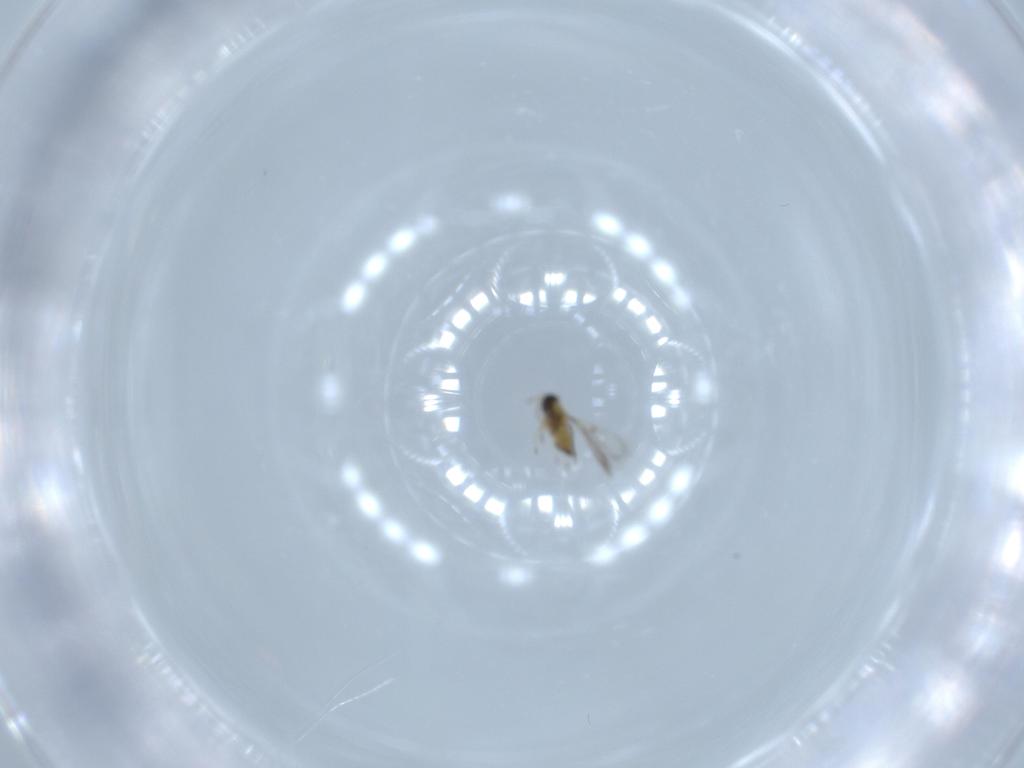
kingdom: Animalia
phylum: Arthropoda
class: Insecta
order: Hymenoptera
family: Trichogrammatidae
